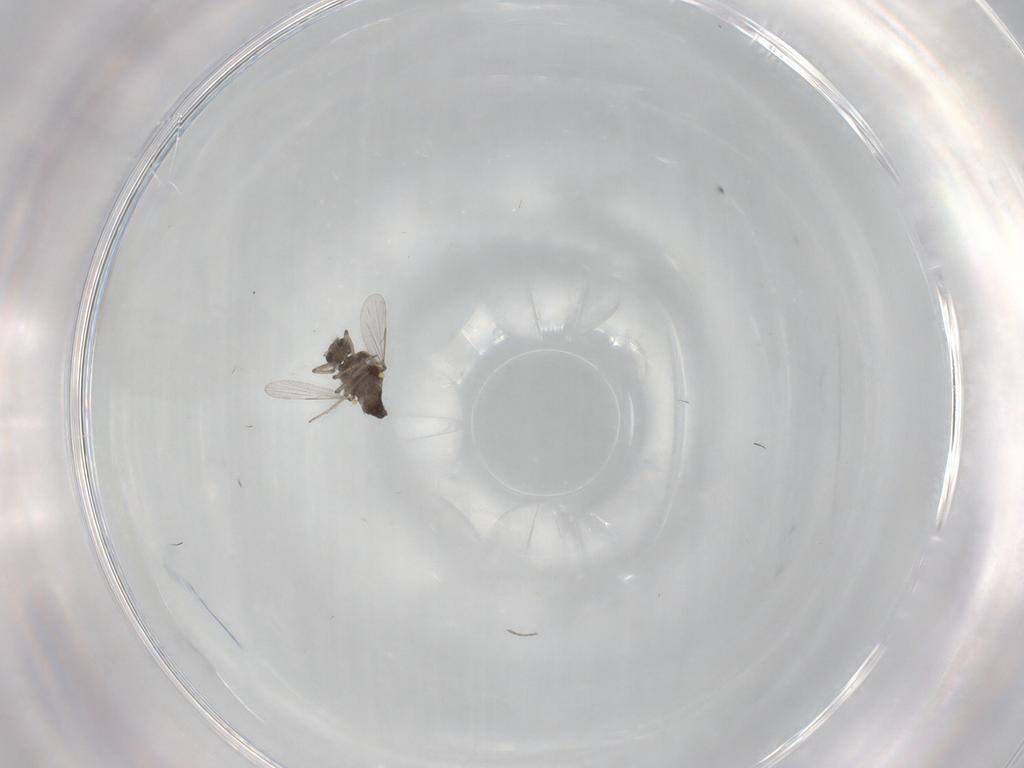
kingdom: Animalia
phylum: Arthropoda
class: Insecta
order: Diptera
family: Ceratopogonidae
